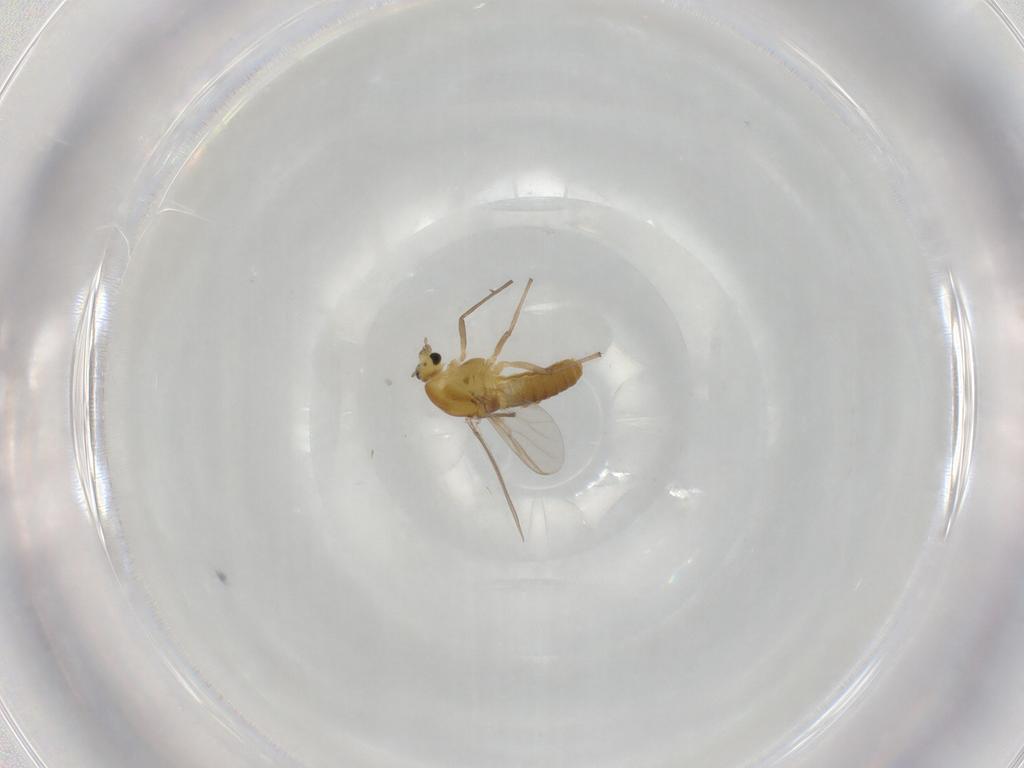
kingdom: Animalia
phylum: Arthropoda
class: Insecta
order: Diptera
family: Chironomidae
